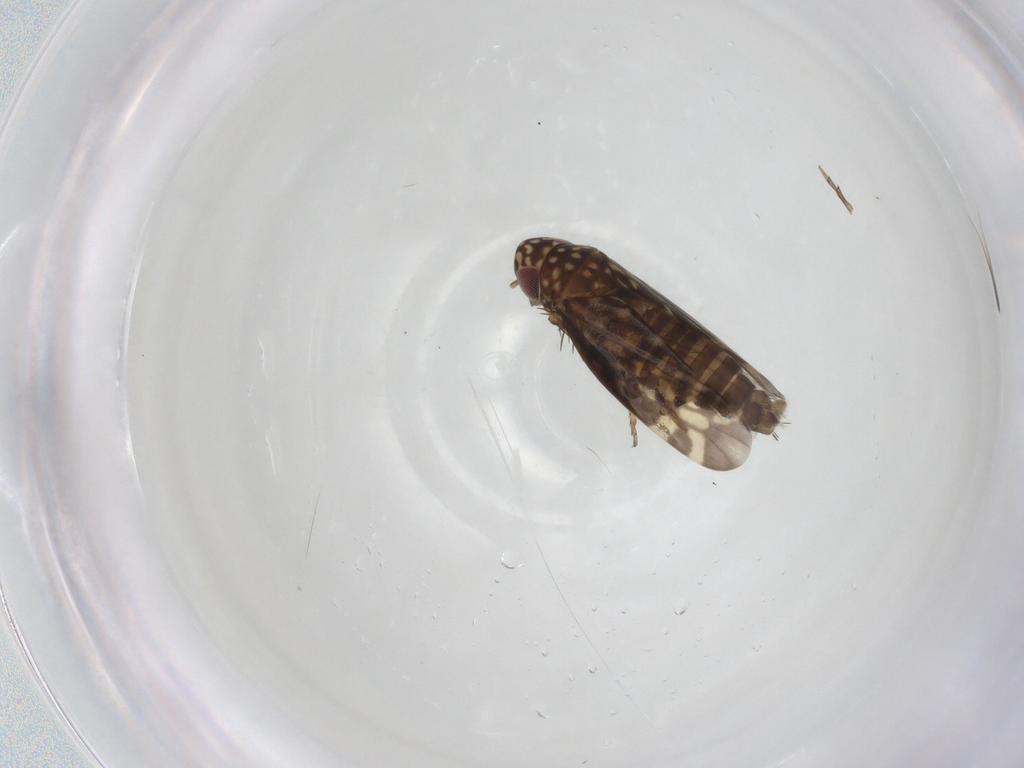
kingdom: Animalia
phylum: Arthropoda
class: Insecta
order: Hemiptera
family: Cicadellidae
